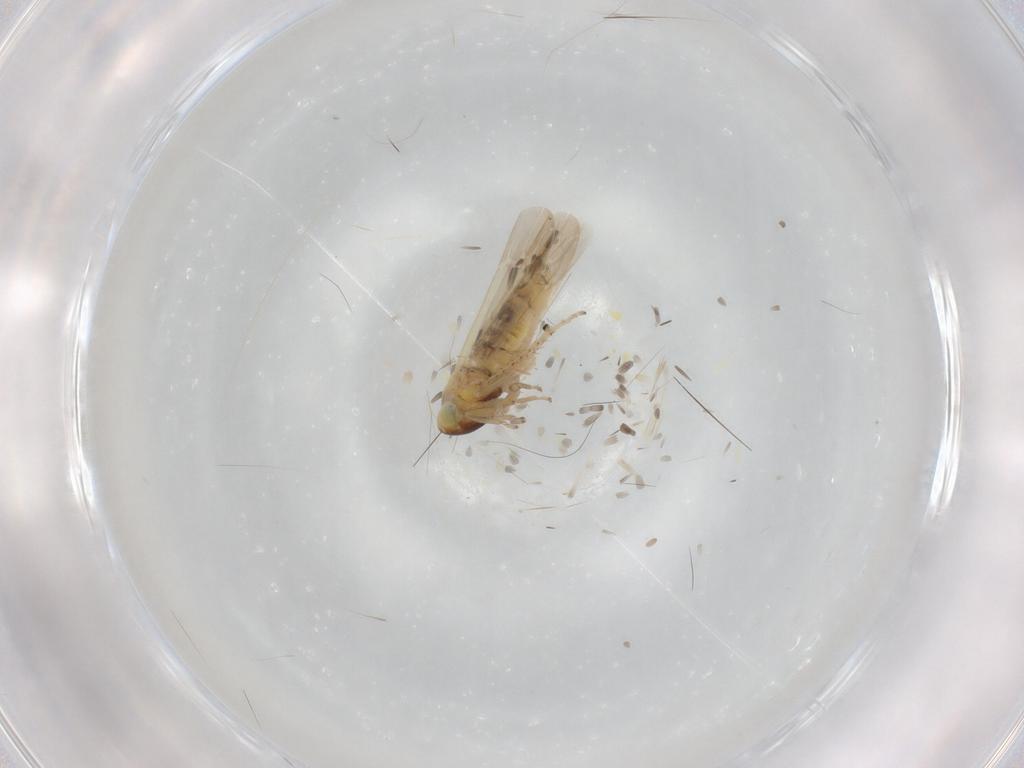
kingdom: Animalia
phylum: Arthropoda
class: Insecta
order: Hemiptera
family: Cicadellidae
